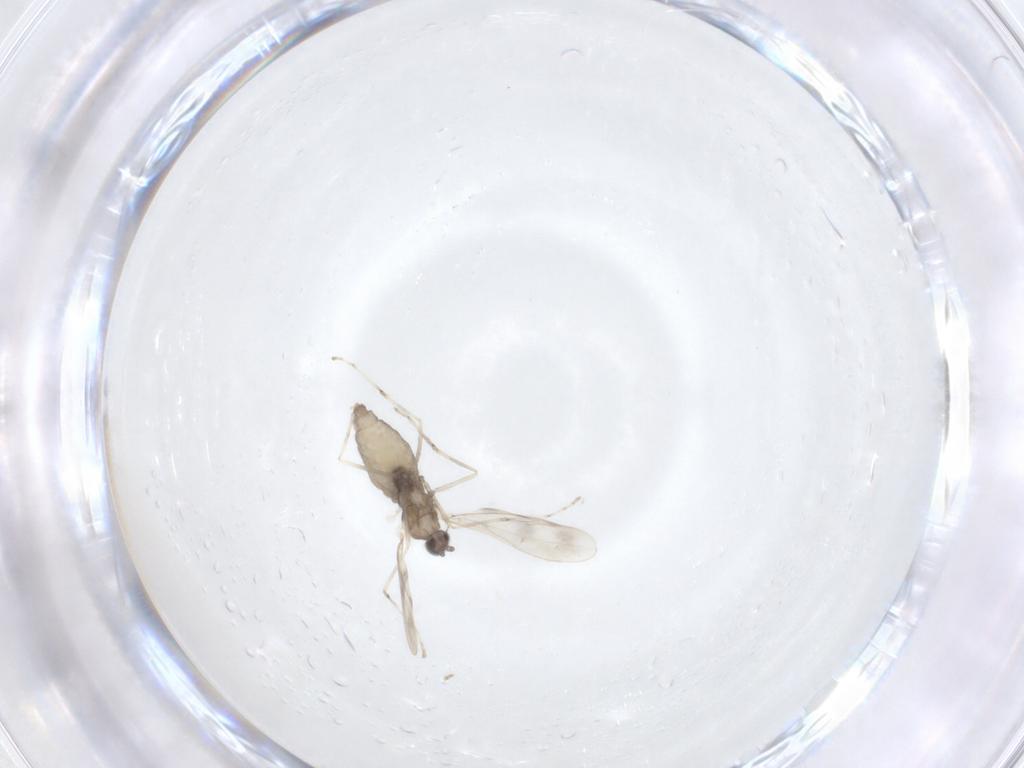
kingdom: Animalia
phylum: Arthropoda
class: Insecta
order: Diptera
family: Cecidomyiidae
